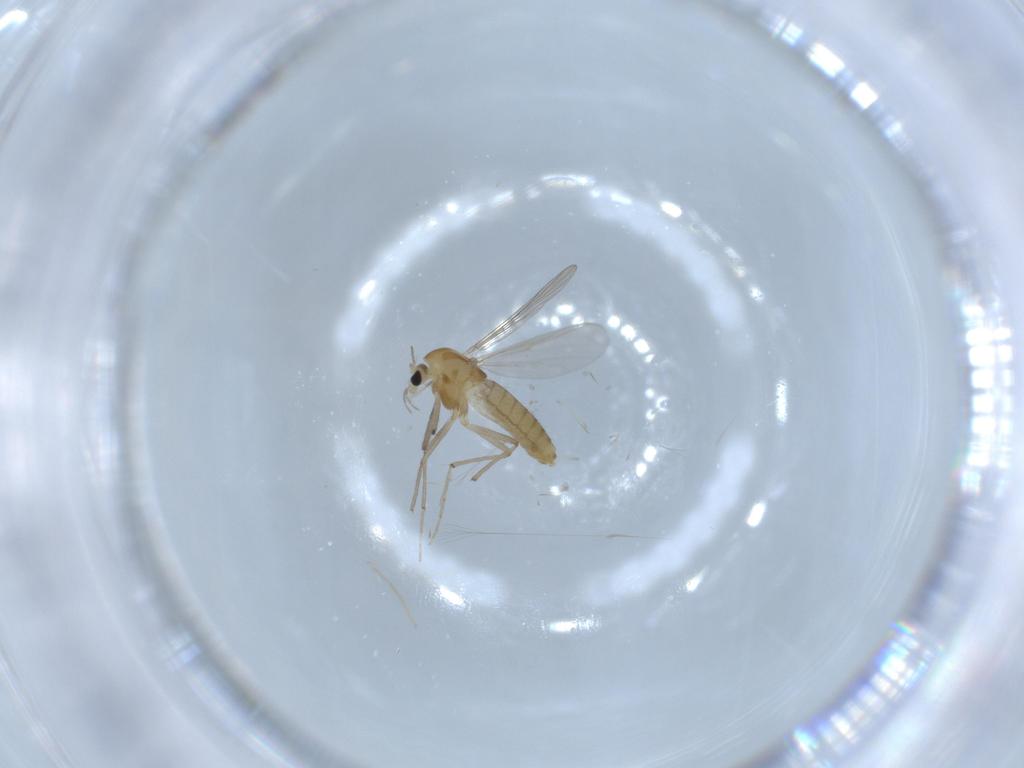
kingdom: Animalia
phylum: Arthropoda
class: Insecta
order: Diptera
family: Chironomidae
